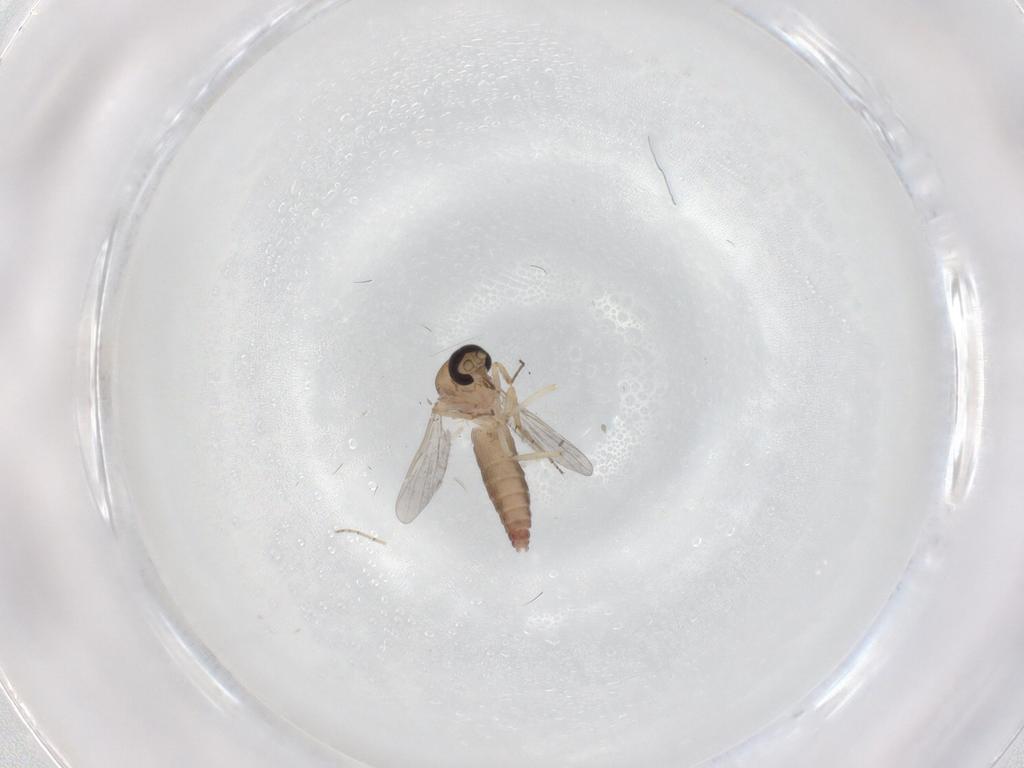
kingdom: Animalia
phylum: Arthropoda
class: Insecta
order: Diptera
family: Ceratopogonidae
